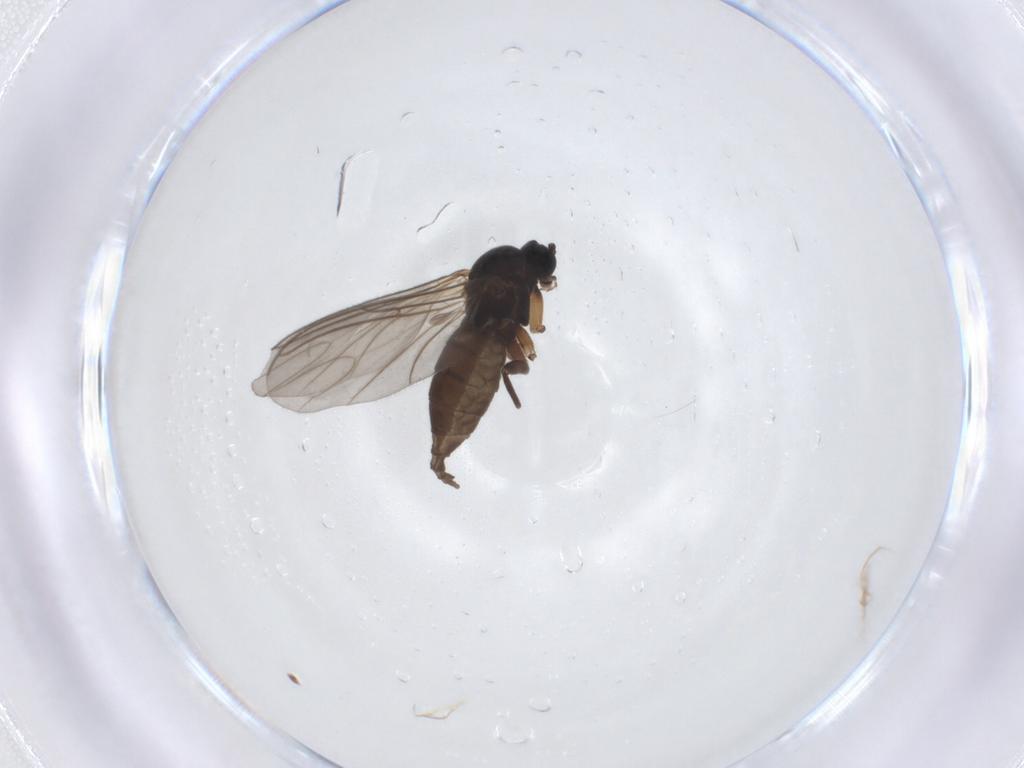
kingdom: Animalia
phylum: Arthropoda
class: Insecta
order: Diptera
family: Sciaridae
